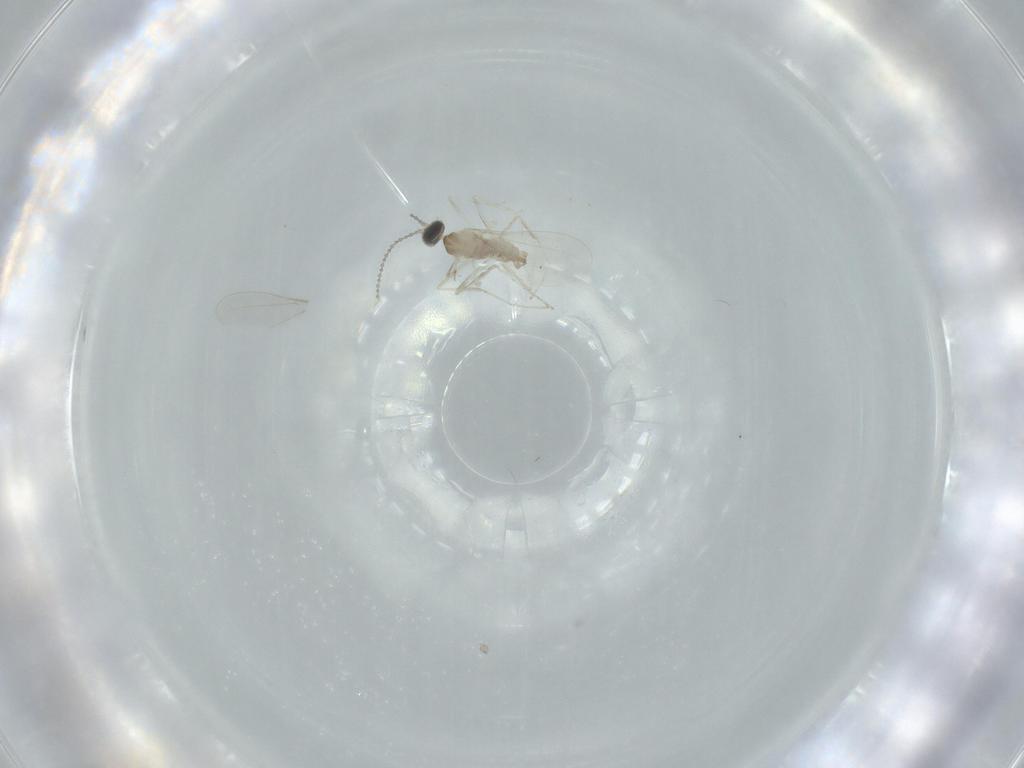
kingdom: Animalia
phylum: Arthropoda
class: Insecta
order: Diptera
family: Cecidomyiidae
